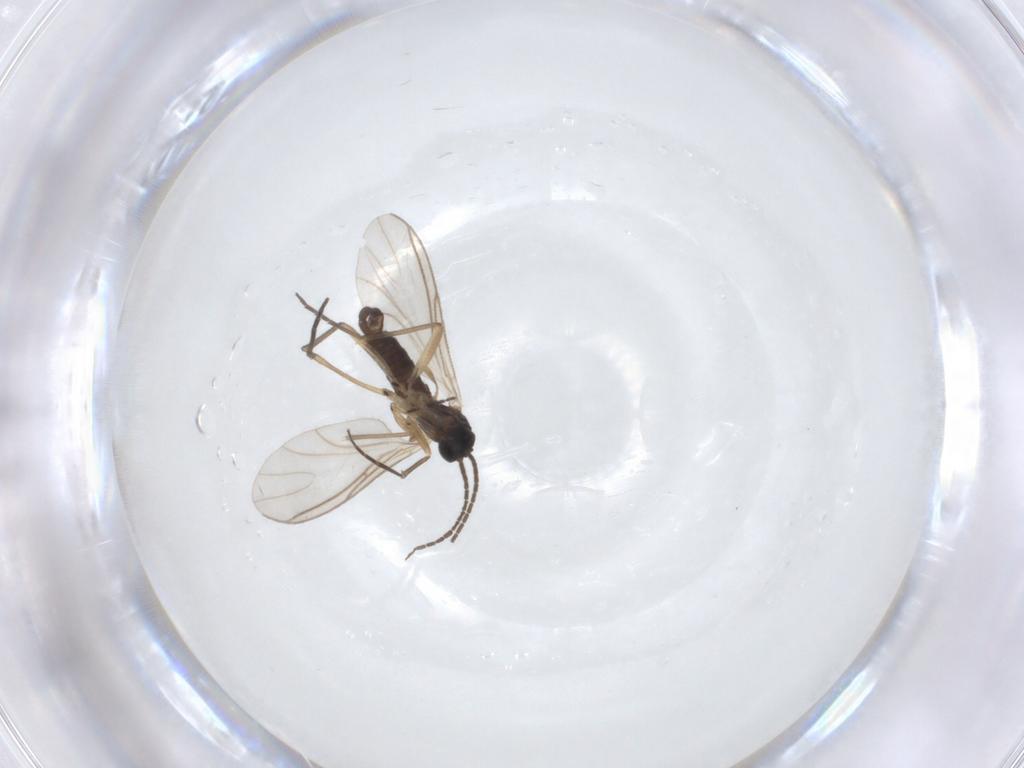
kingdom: Animalia
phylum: Arthropoda
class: Insecta
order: Diptera
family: Sciaridae
